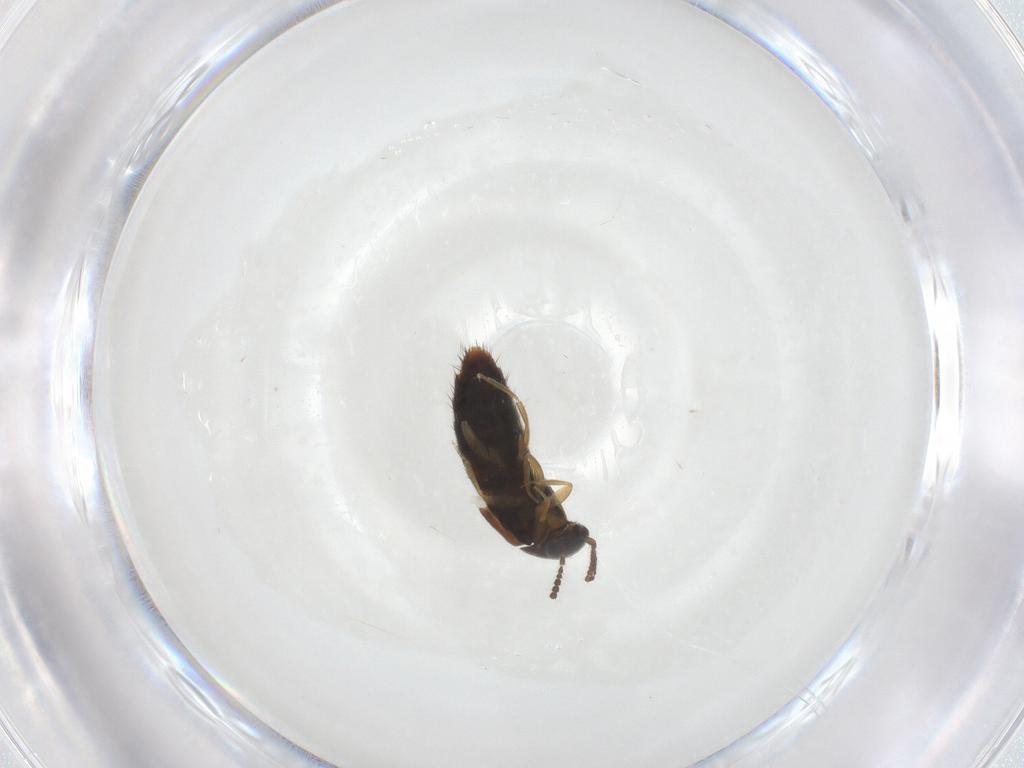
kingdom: Animalia
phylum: Arthropoda
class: Insecta
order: Coleoptera
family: Staphylinidae
